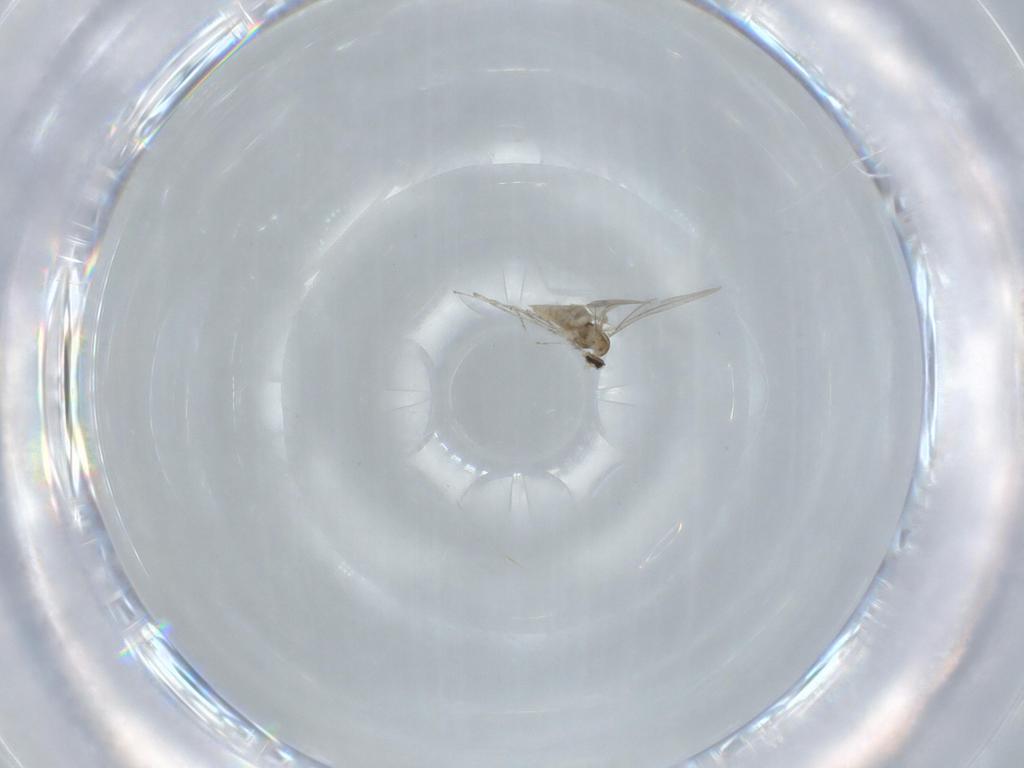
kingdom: Animalia
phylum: Arthropoda
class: Insecta
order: Diptera
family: Cecidomyiidae
